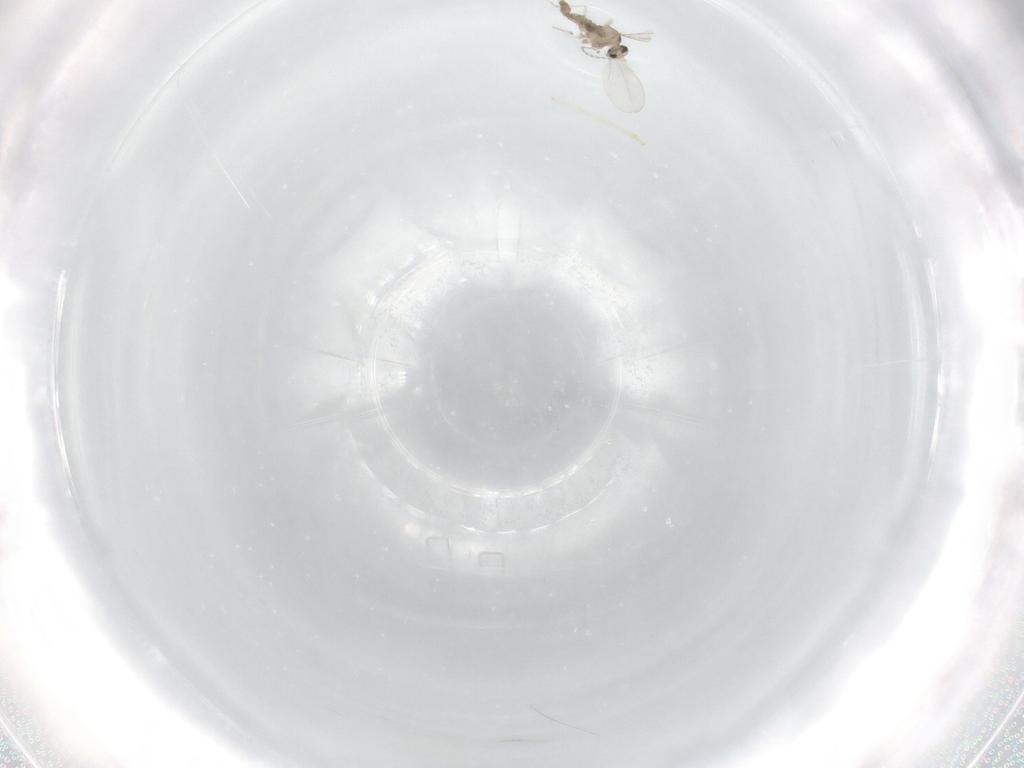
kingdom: Animalia
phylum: Arthropoda
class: Insecta
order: Diptera
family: Cecidomyiidae
